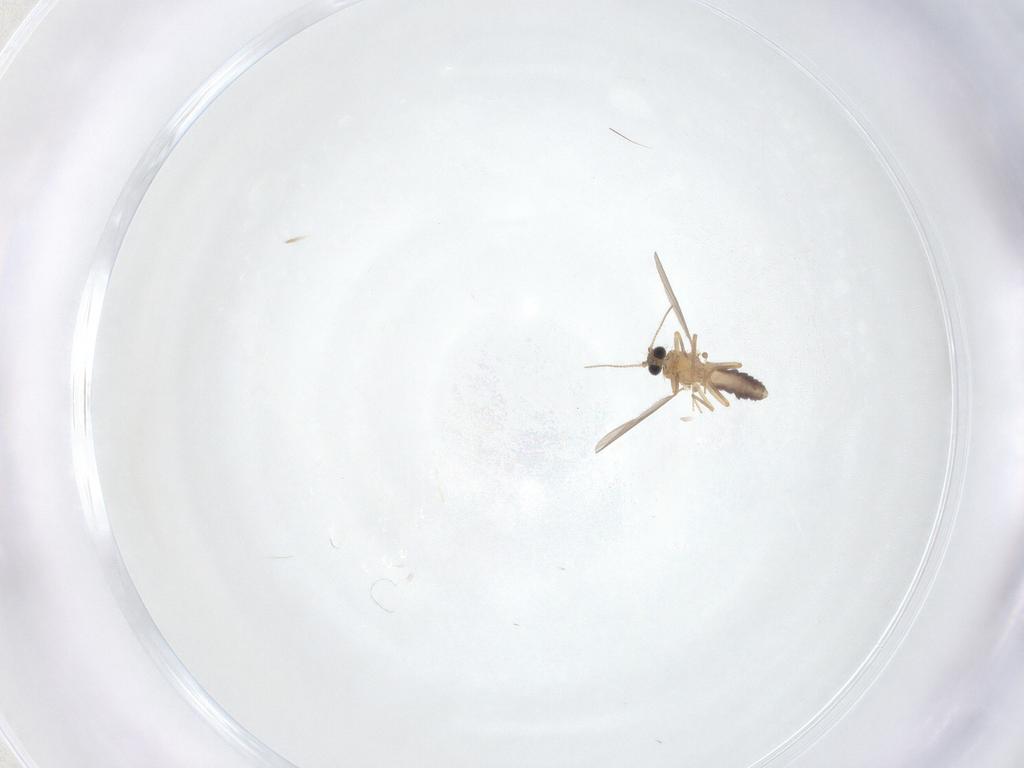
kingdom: Animalia
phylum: Arthropoda
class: Insecta
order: Diptera
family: Ceratopogonidae
